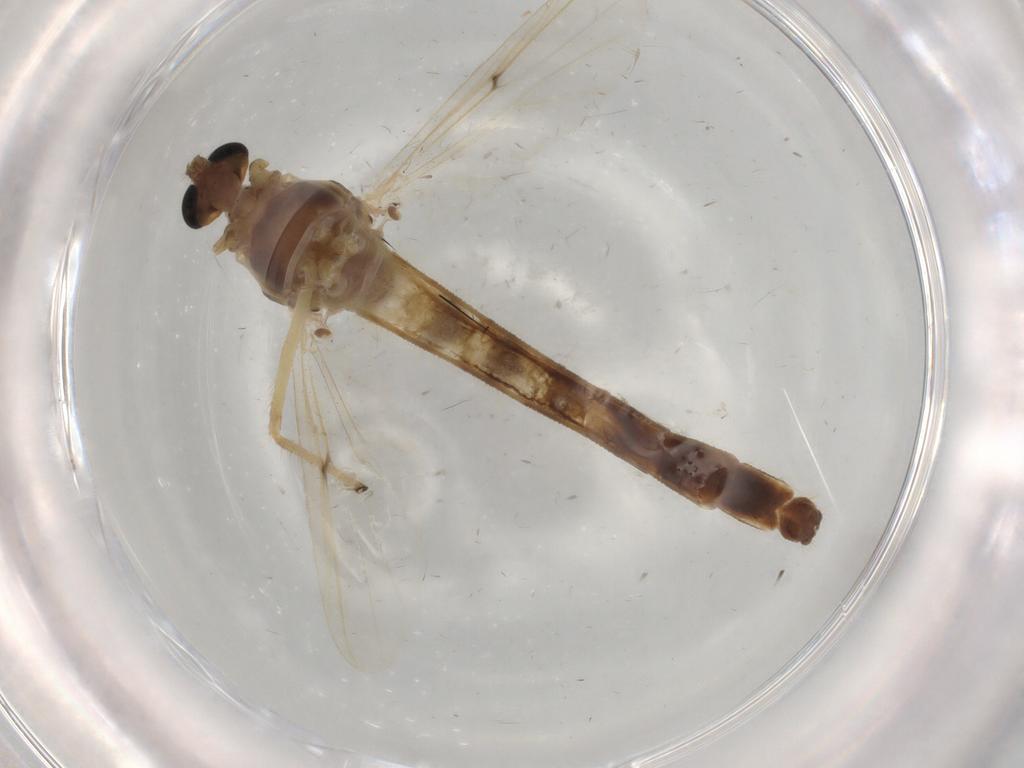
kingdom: Animalia
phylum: Arthropoda
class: Insecta
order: Diptera
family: Chironomidae
